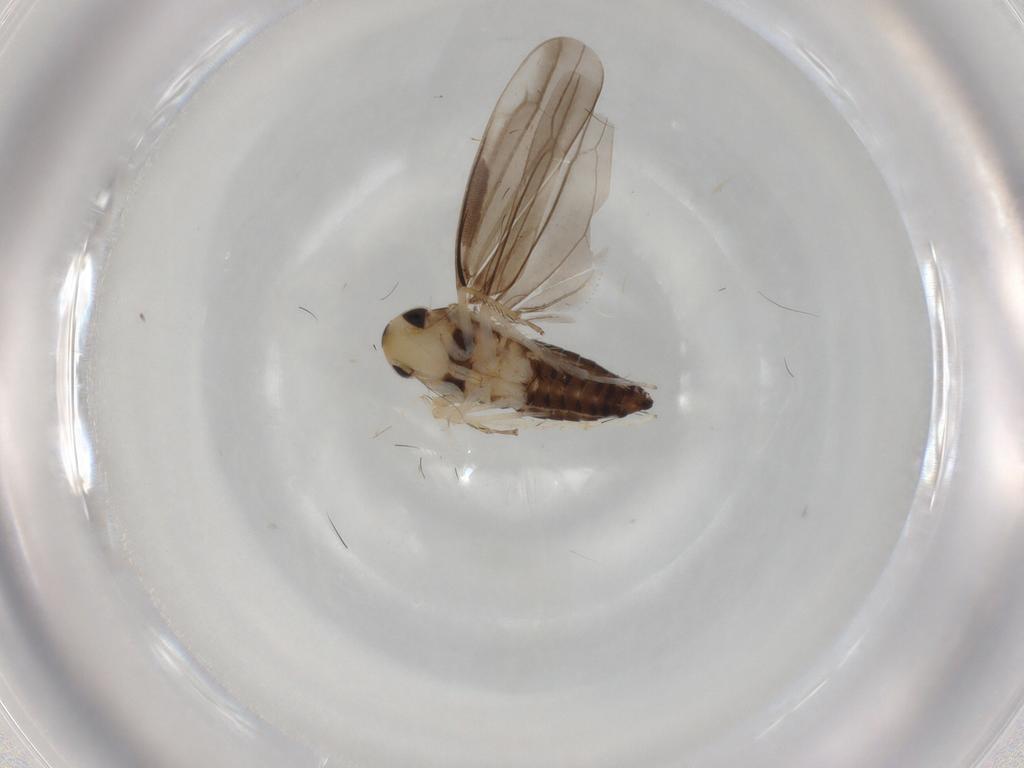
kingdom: Animalia
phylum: Arthropoda
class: Insecta
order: Hemiptera
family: Cicadellidae
